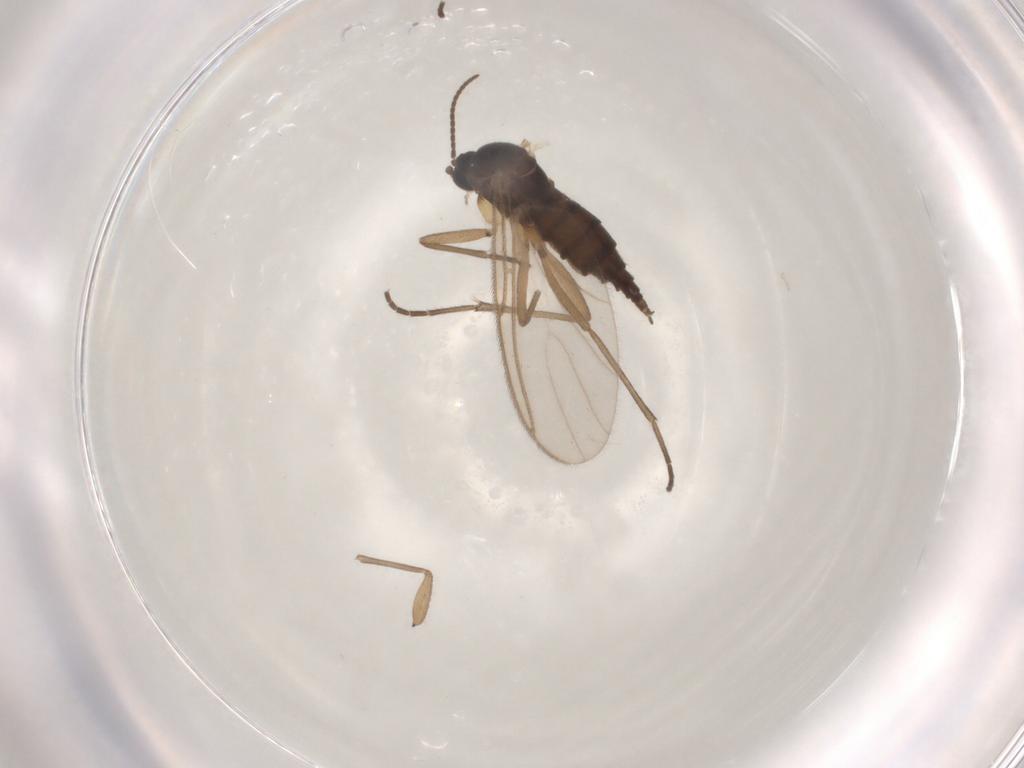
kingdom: Animalia
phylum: Arthropoda
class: Insecta
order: Diptera
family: Sciaridae
